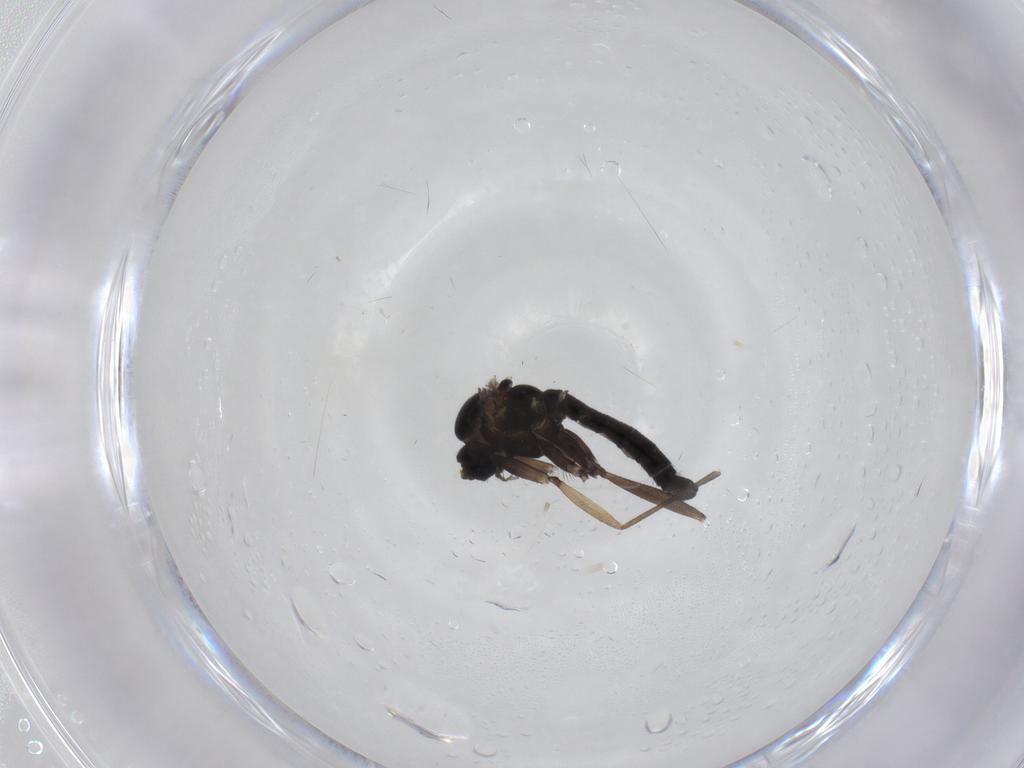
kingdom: Animalia
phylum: Arthropoda
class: Insecta
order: Diptera
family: Sciaridae
